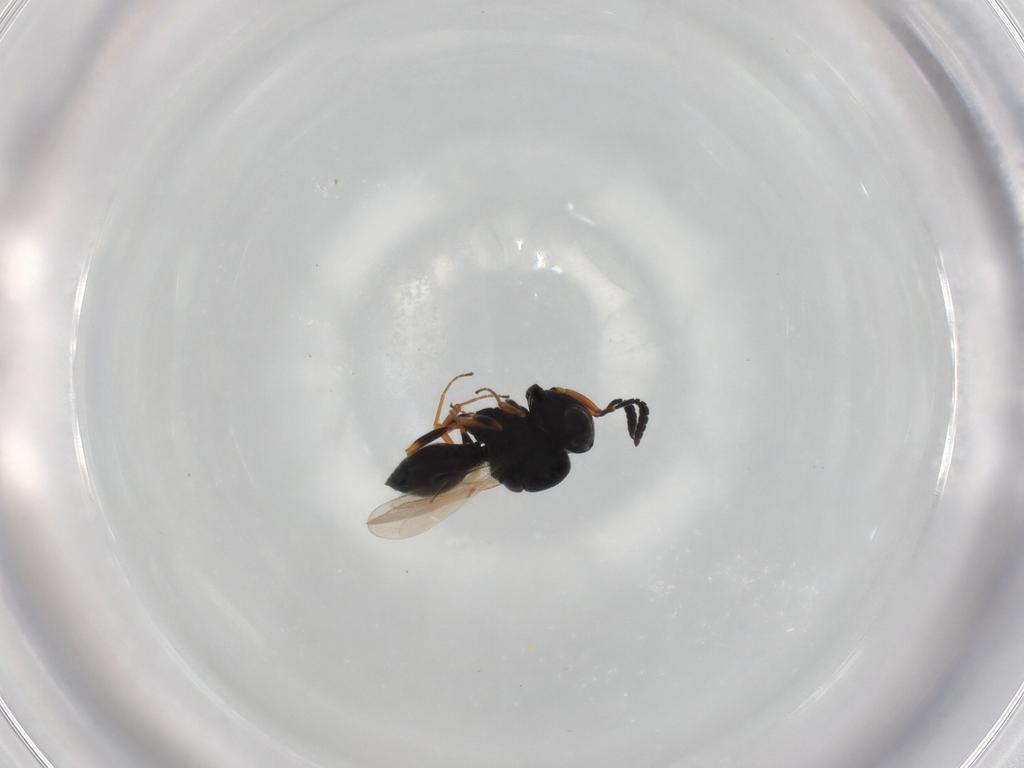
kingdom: Animalia
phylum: Arthropoda
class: Insecta
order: Hymenoptera
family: Scelionidae
